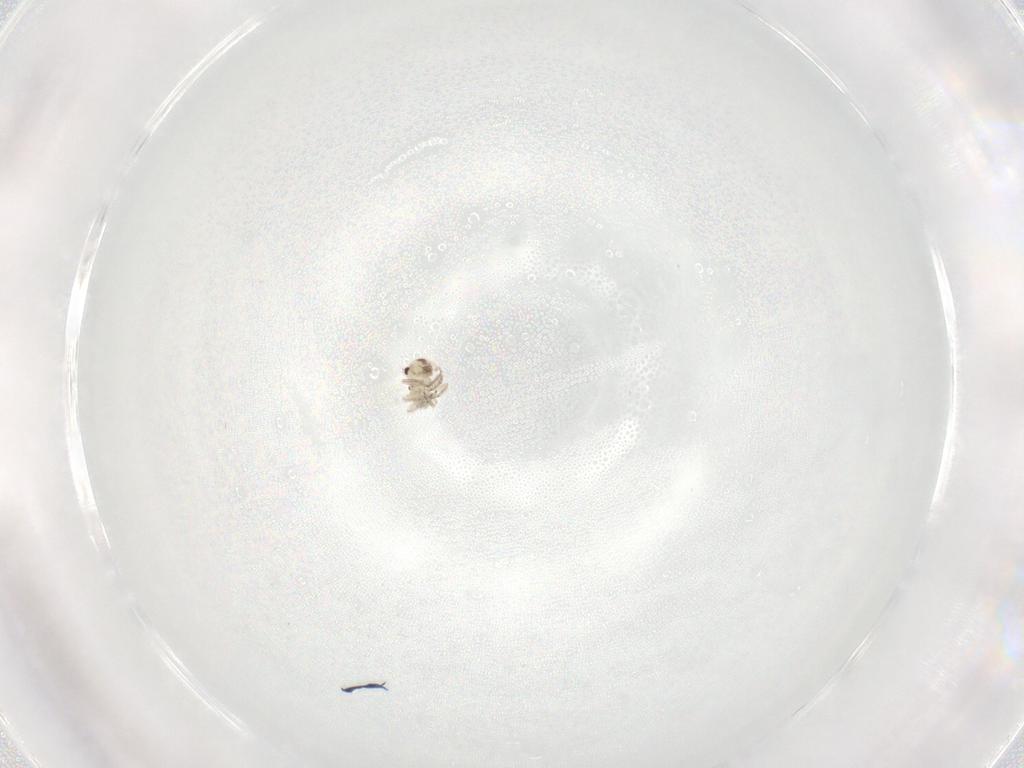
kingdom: Animalia
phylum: Arthropoda
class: Insecta
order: Psocodea
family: Psocidae
